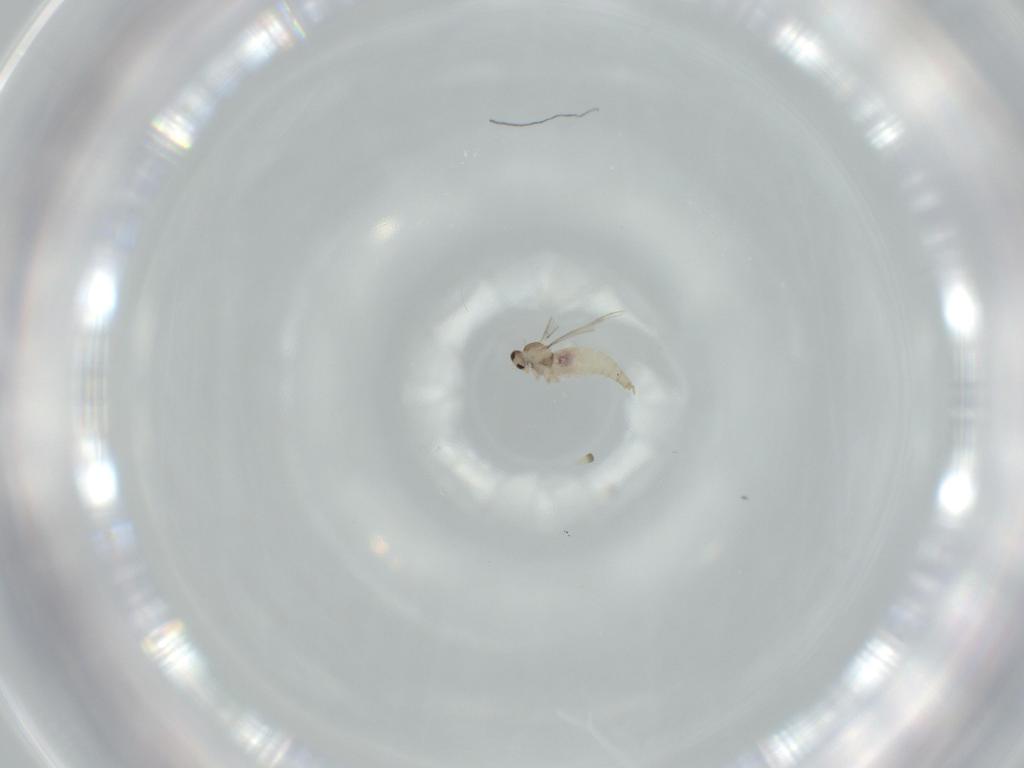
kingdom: Animalia
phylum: Arthropoda
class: Insecta
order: Diptera
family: Cecidomyiidae
